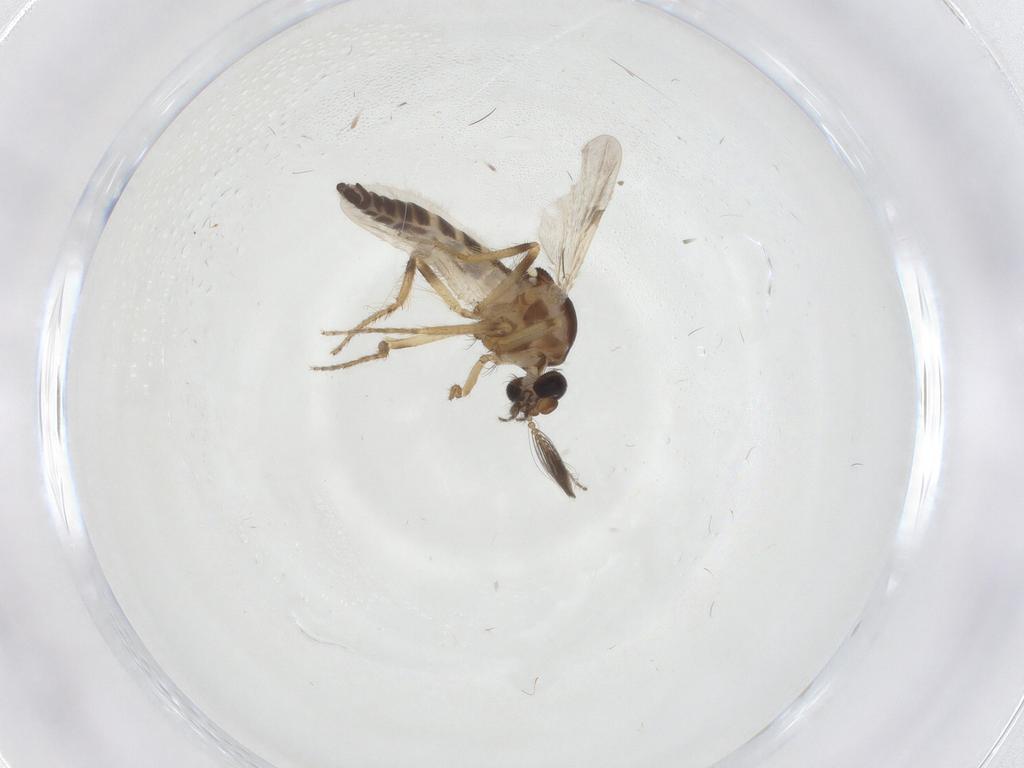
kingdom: Animalia
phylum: Arthropoda
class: Insecta
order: Diptera
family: Ceratopogonidae
